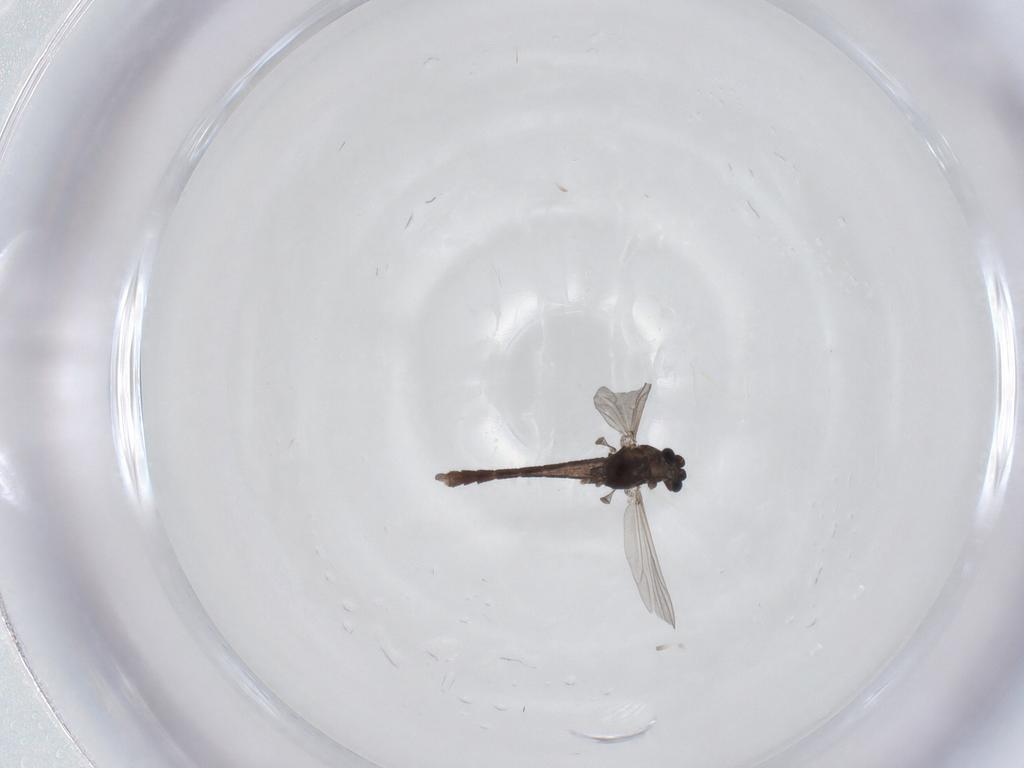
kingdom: Animalia
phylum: Arthropoda
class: Insecta
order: Diptera
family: Chironomidae
